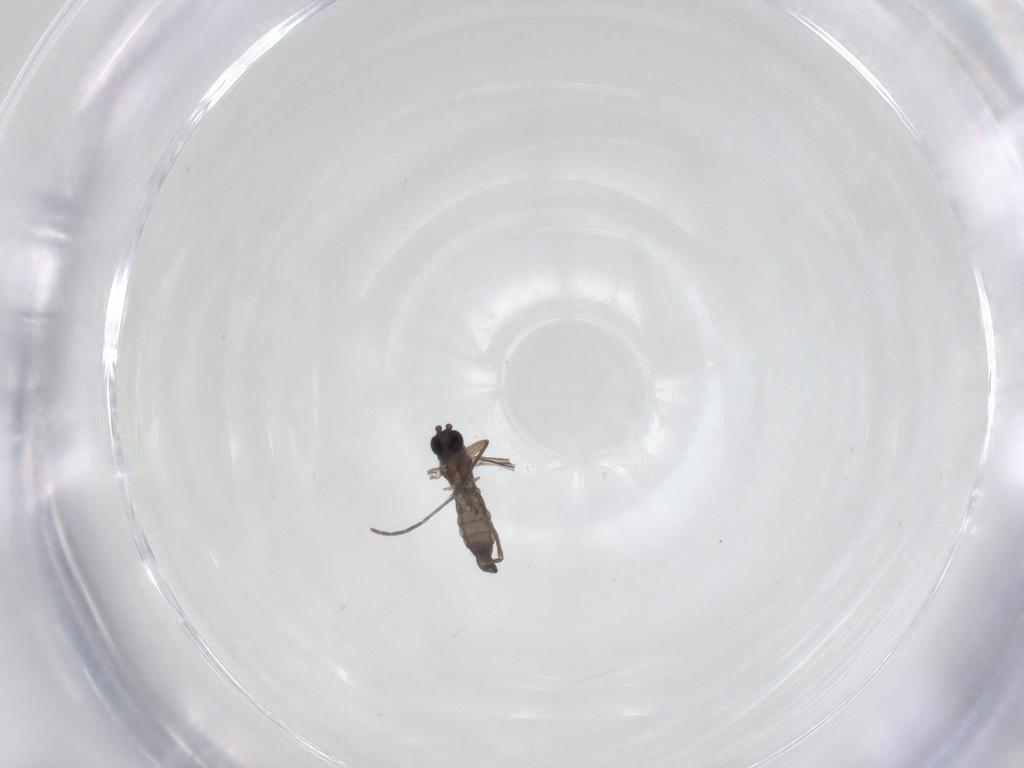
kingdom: Animalia
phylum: Arthropoda
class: Insecta
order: Diptera
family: Sciaridae
